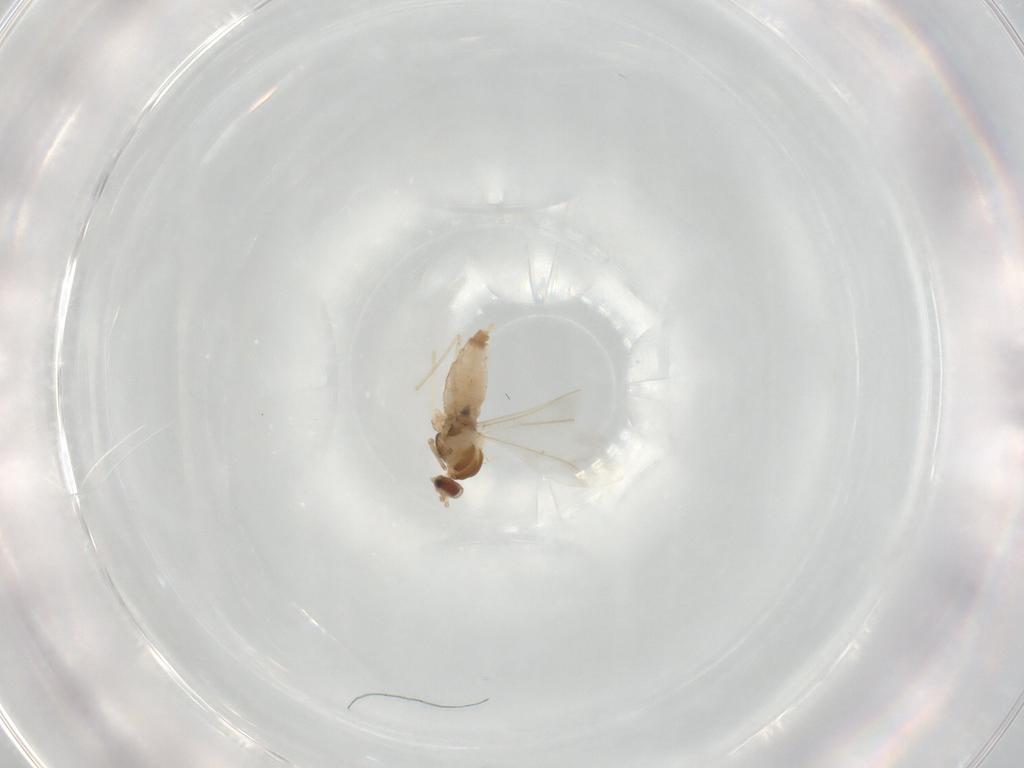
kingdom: Animalia
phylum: Arthropoda
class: Insecta
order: Diptera
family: Cecidomyiidae
